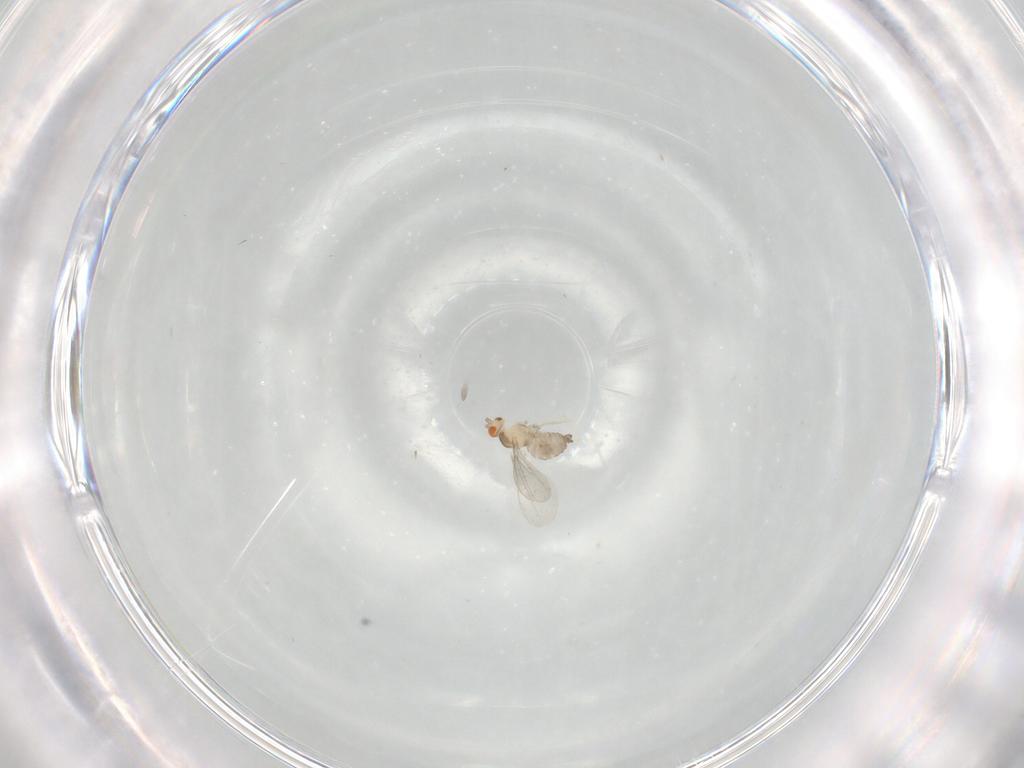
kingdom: Animalia
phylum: Arthropoda
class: Insecta
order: Diptera
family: Cecidomyiidae
